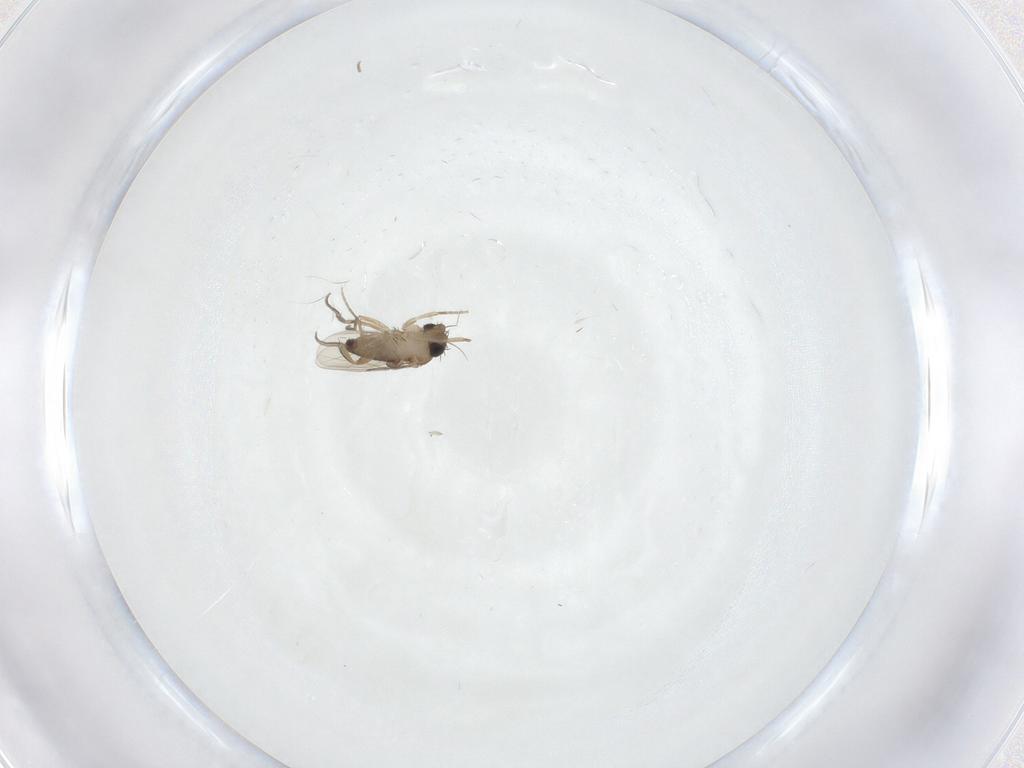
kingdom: Animalia
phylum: Arthropoda
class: Insecta
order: Diptera
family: Phoridae
